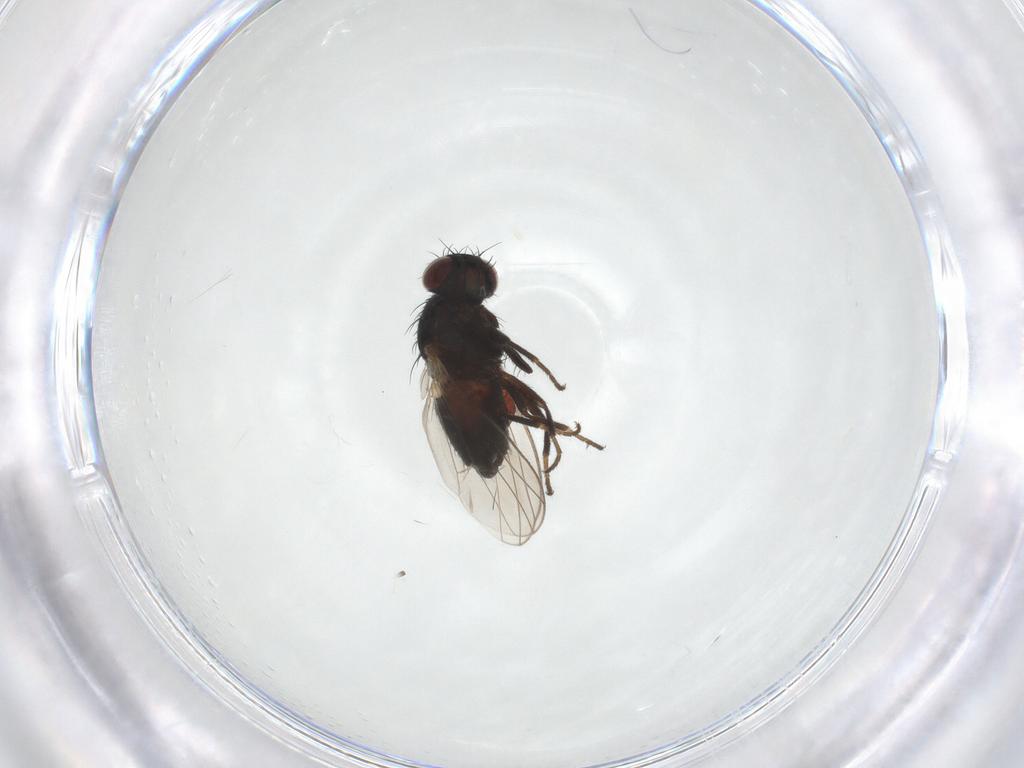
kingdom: Animalia
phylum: Arthropoda
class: Insecta
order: Diptera
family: Carnidae
